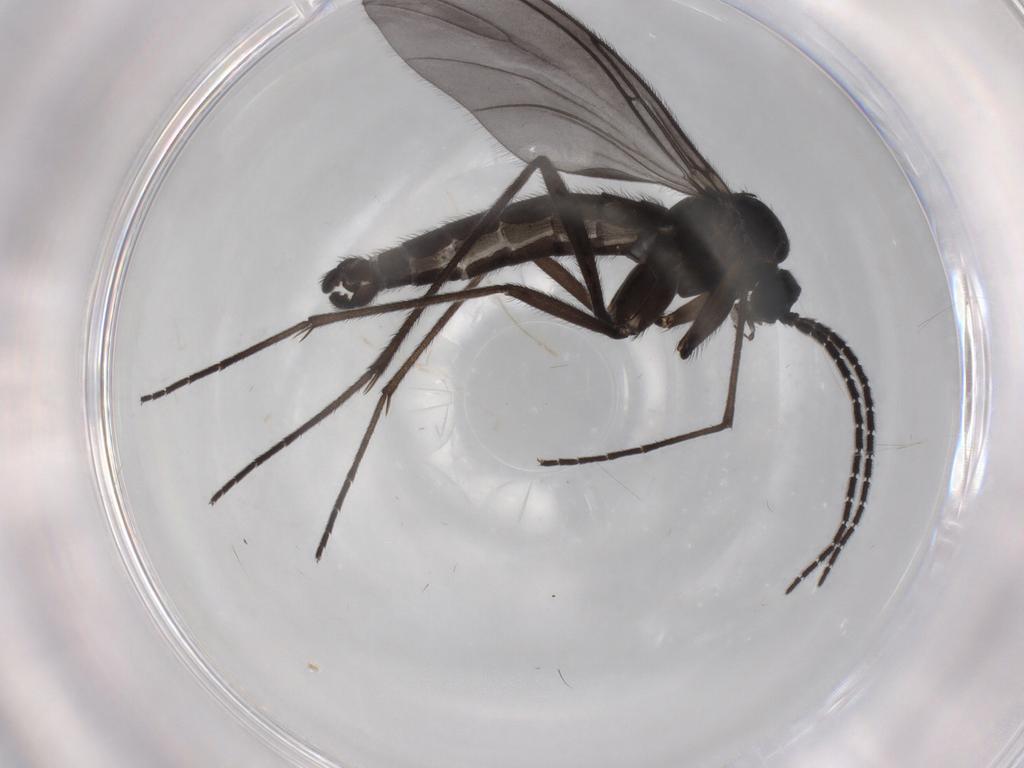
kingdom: Animalia
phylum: Arthropoda
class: Insecta
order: Diptera
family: Sciaridae
